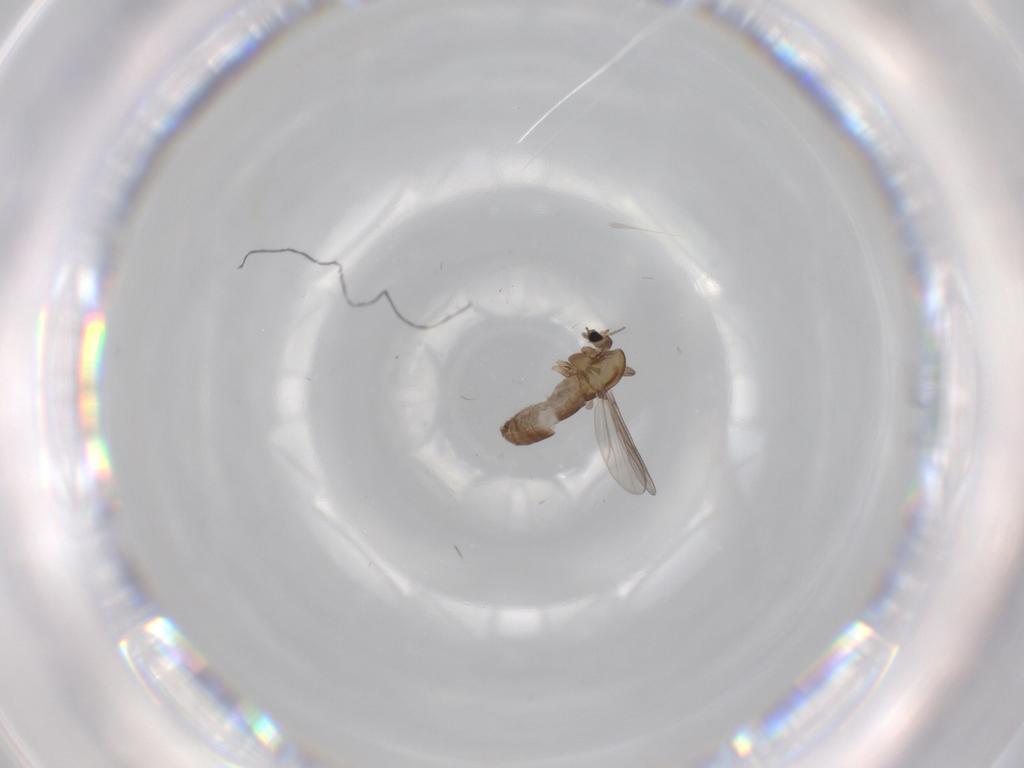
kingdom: Animalia
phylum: Arthropoda
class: Insecta
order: Diptera
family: Chironomidae
